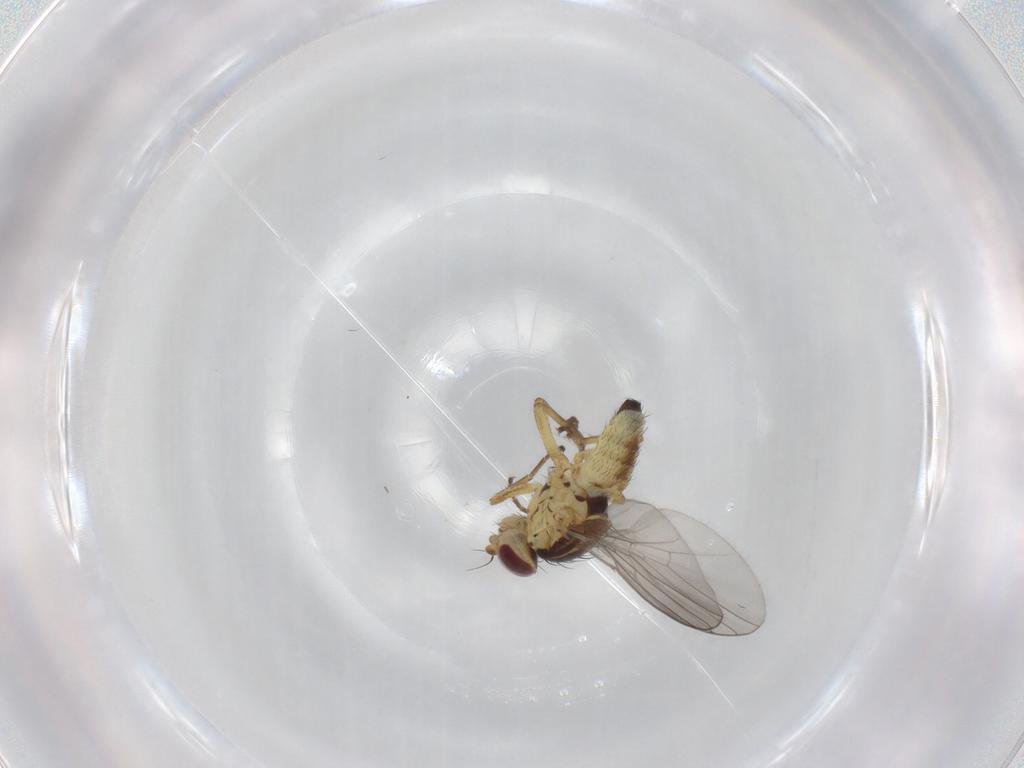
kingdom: Animalia
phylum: Arthropoda
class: Insecta
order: Diptera
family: Agromyzidae
